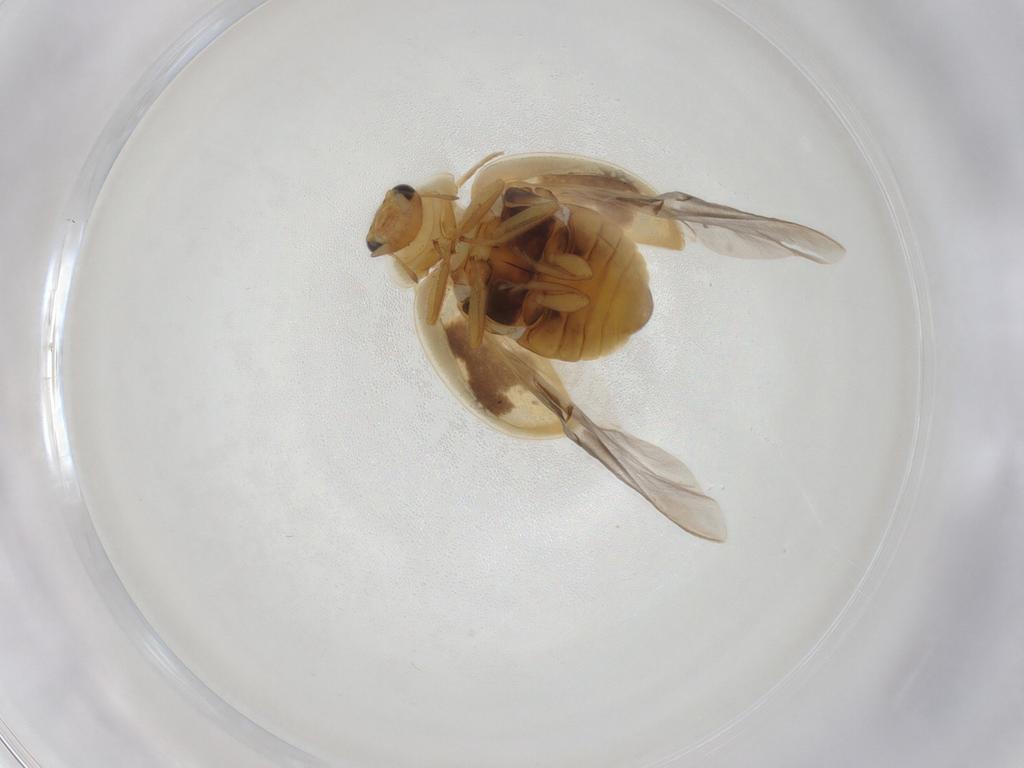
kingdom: Animalia
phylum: Arthropoda
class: Insecta
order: Coleoptera
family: Coccinellidae
